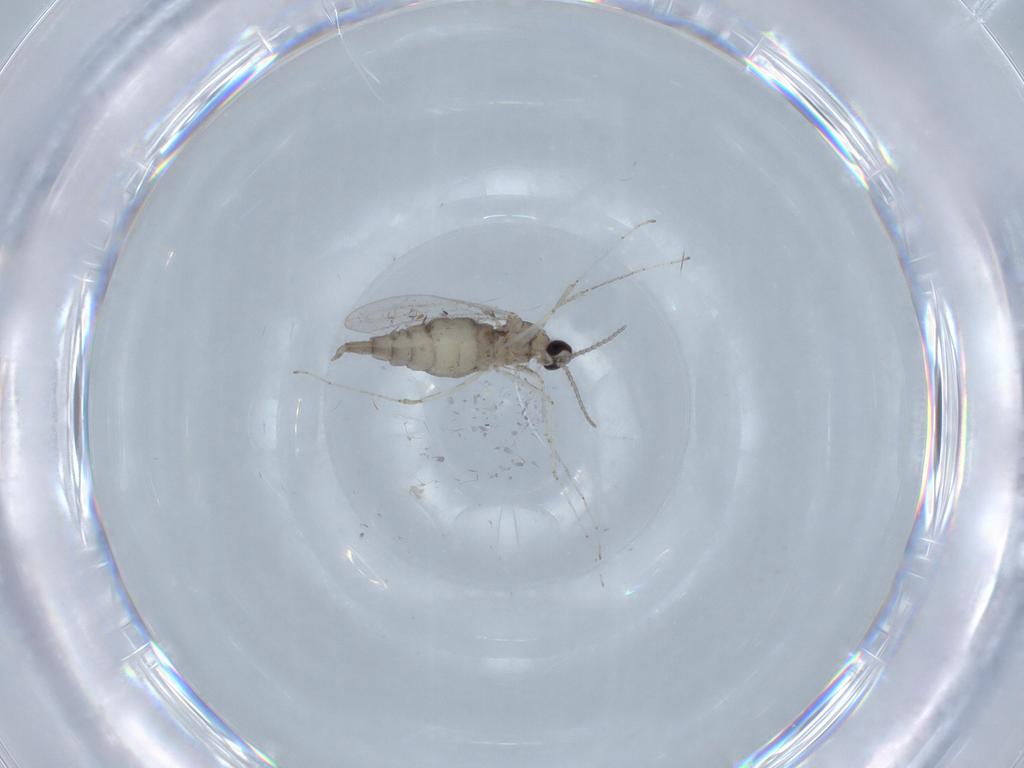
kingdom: Animalia
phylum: Arthropoda
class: Insecta
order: Diptera
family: Cecidomyiidae
